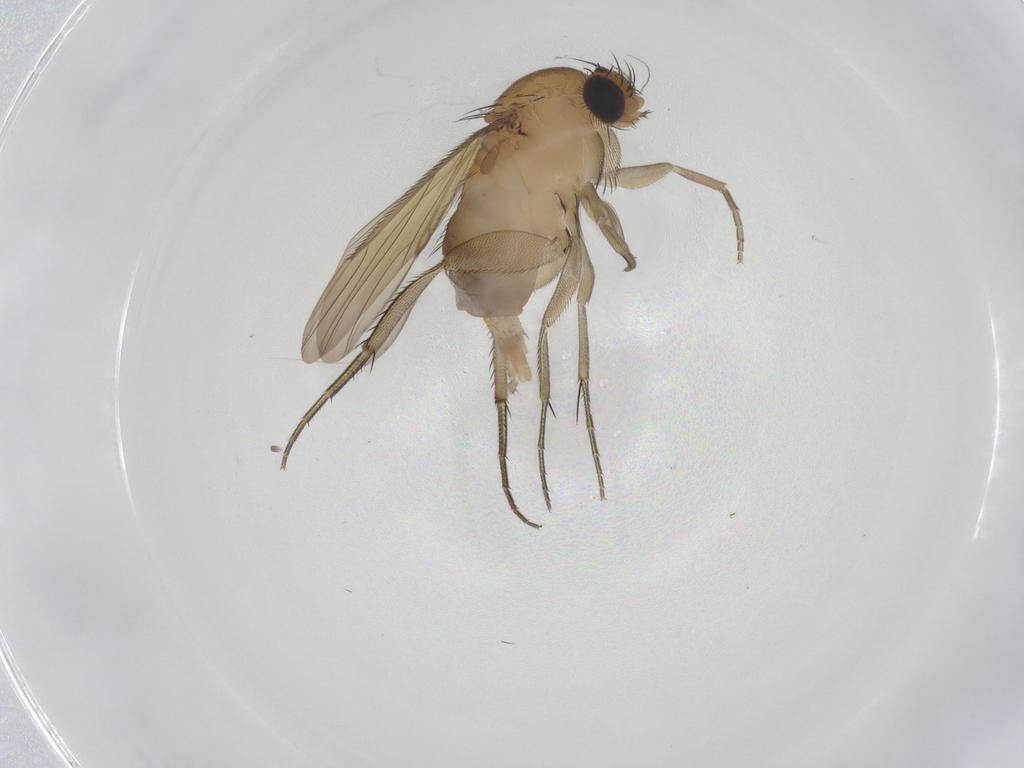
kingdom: Animalia
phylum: Arthropoda
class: Insecta
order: Diptera
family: Phoridae
